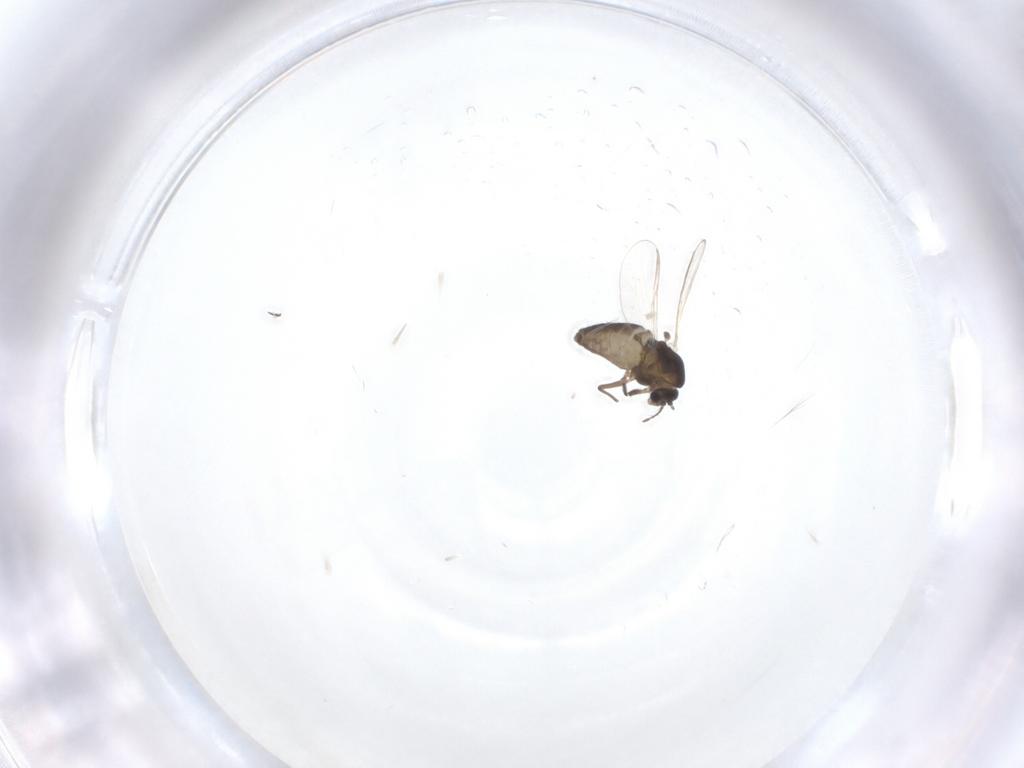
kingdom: Animalia
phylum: Arthropoda
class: Insecta
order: Diptera
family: Chironomidae
